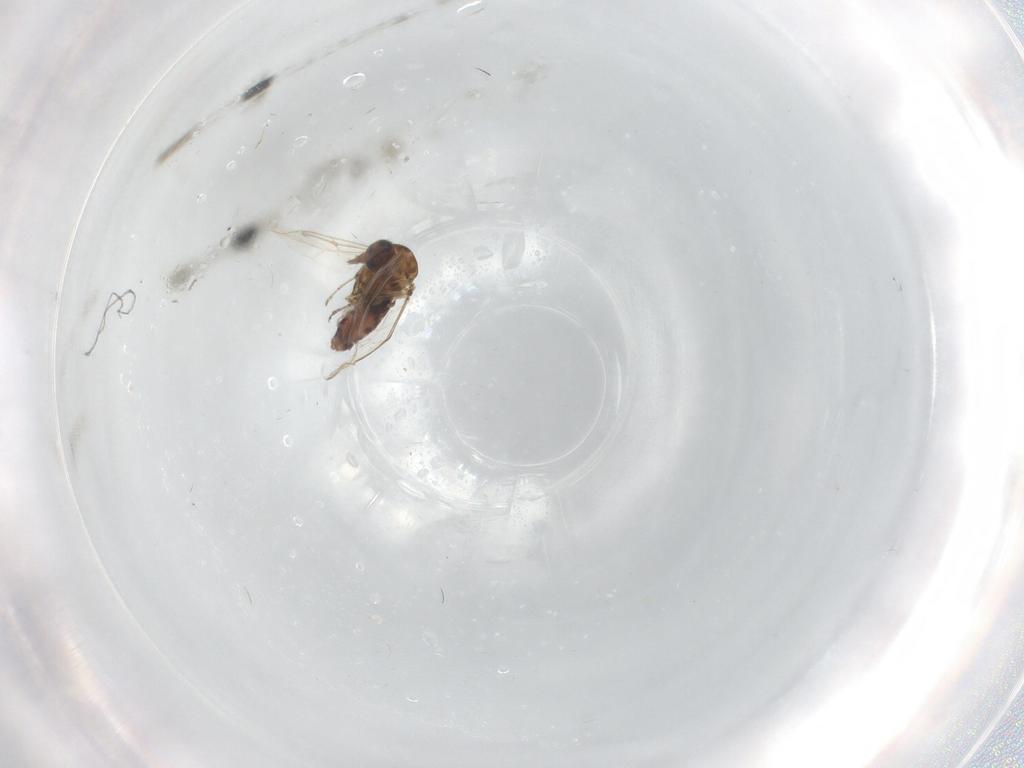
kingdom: Animalia
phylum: Arthropoda
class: Insecta
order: Diptera
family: Ceratopogonidae
